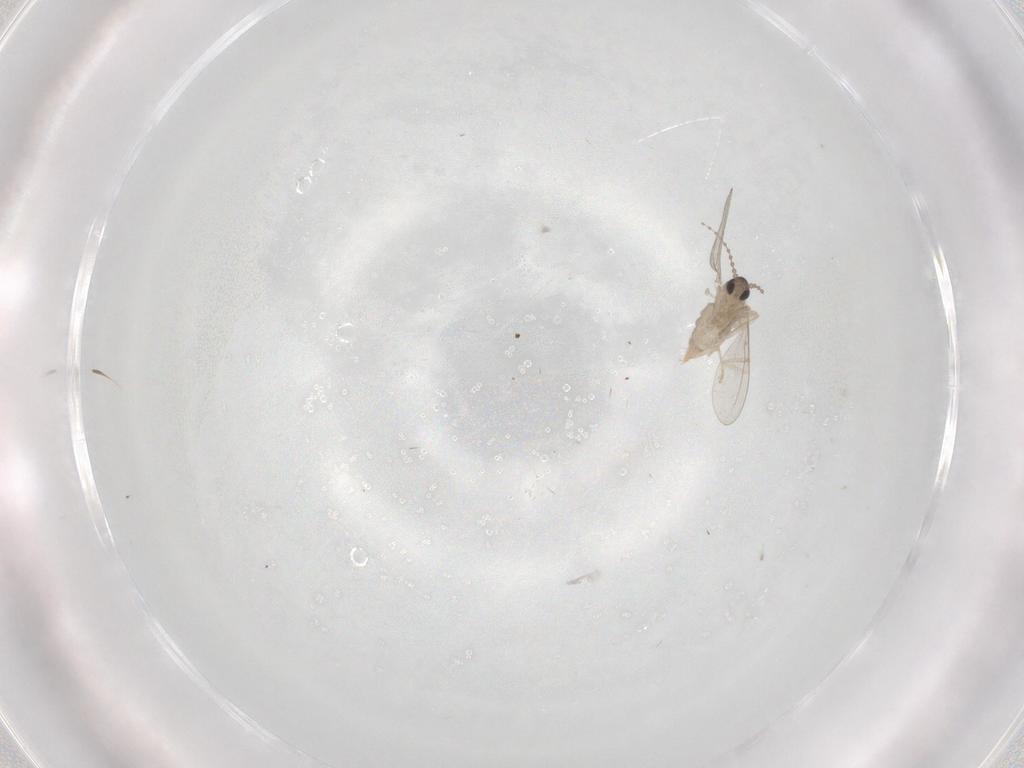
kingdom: Animalia
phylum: Arthropoda
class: Insecta
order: Diptera
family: Cecidomyiidae
